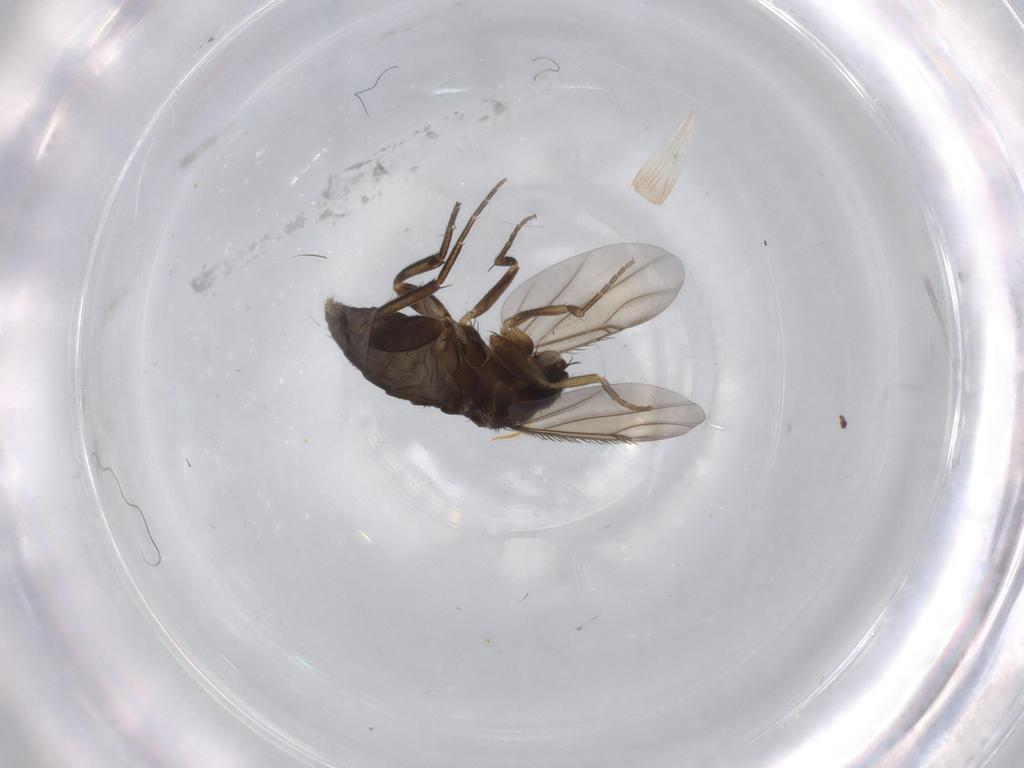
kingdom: Animalia
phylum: Arthropoda
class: Insecta
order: Diptera
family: Phoridae
